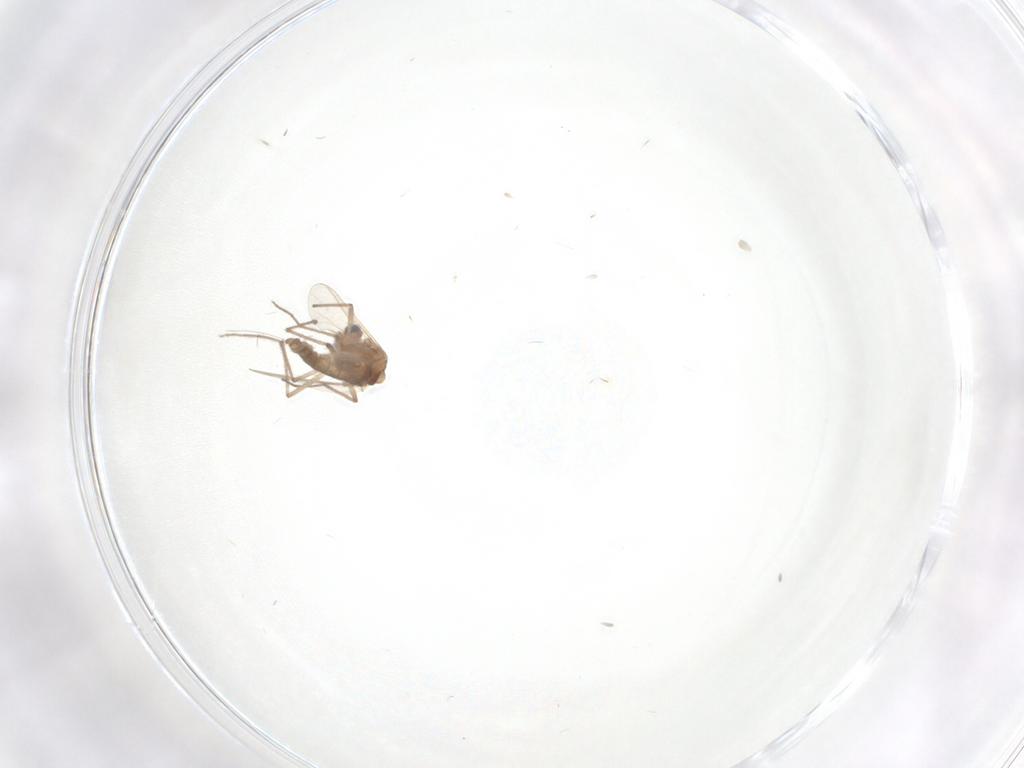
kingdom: Animalia
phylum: Arthropoda
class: Insecta
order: Diptera
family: Chironomidae
